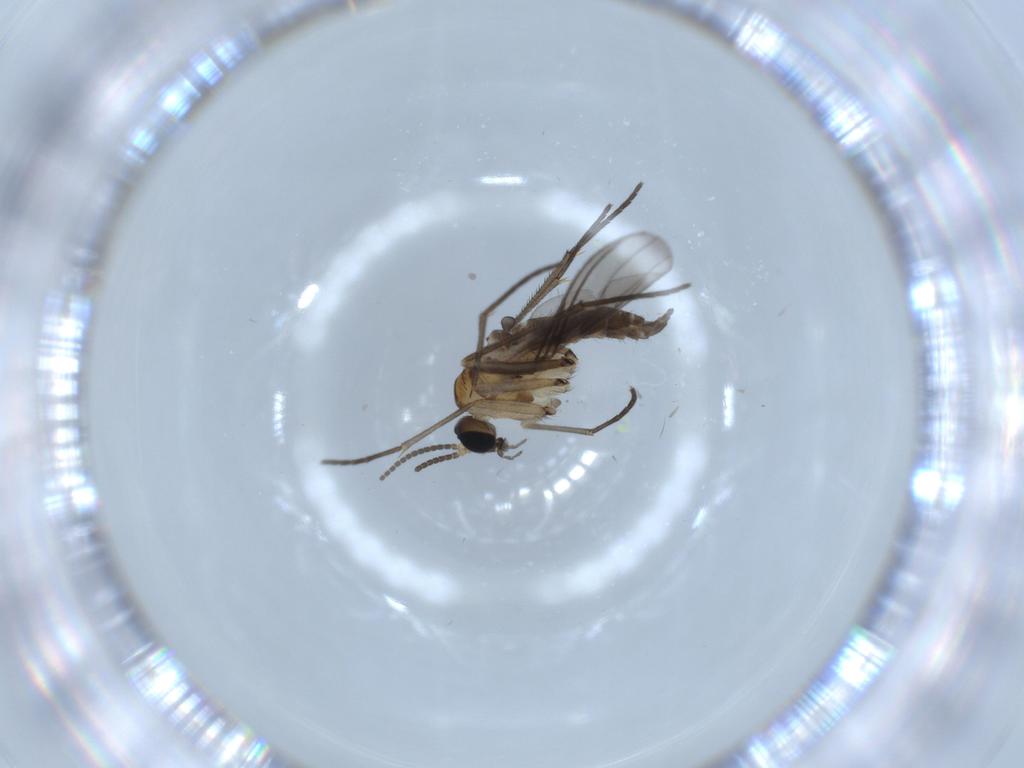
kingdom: Animalia
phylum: Arthropoda
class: Insecta
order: Diptera
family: Sciaridae
